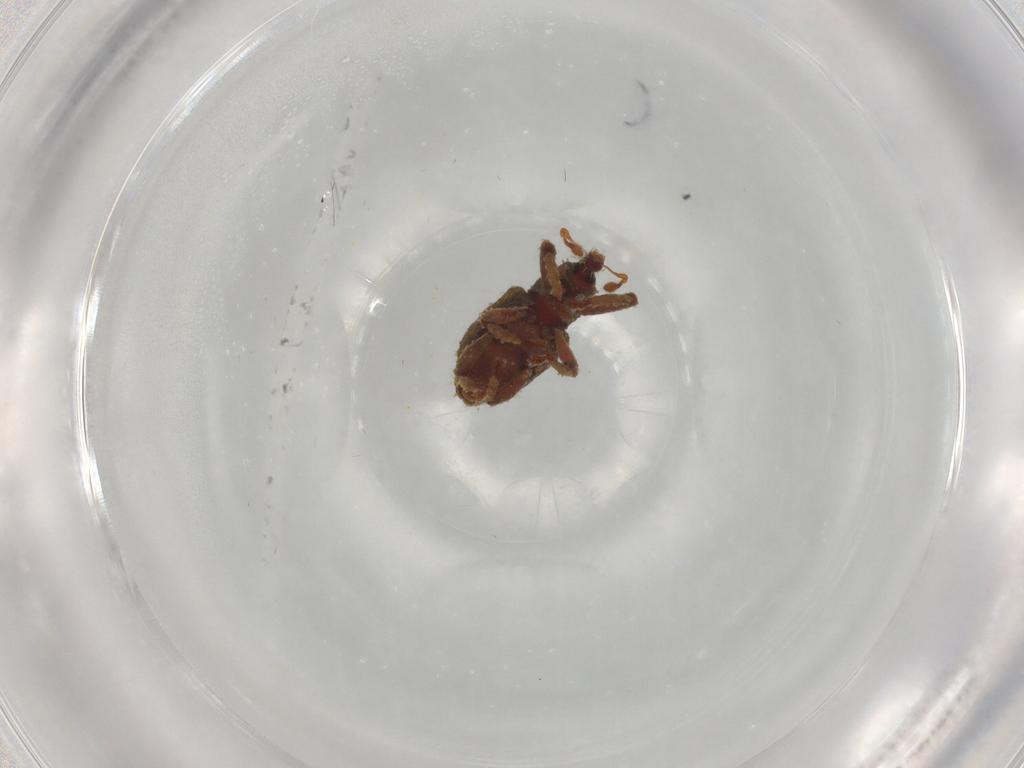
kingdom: Animalia
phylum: Arthropoda
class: Insecta
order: Coleoptera
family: Curculionidae
